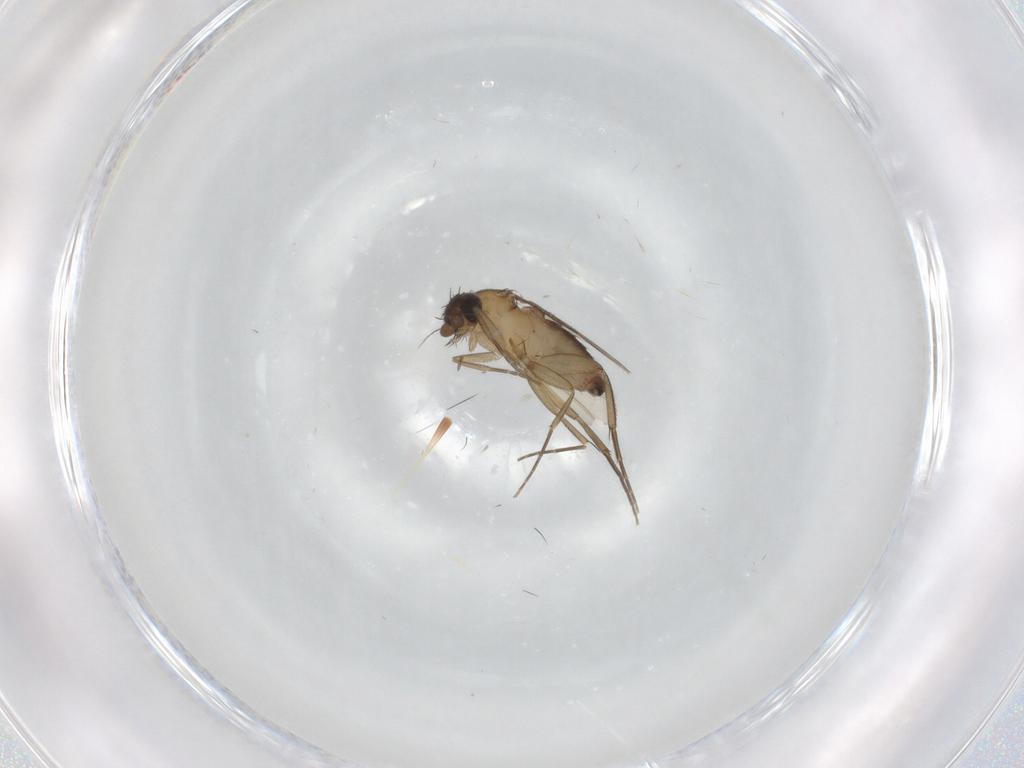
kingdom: Animalia
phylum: Arthropoda
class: Insecta
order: Diptera
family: Phoridae
